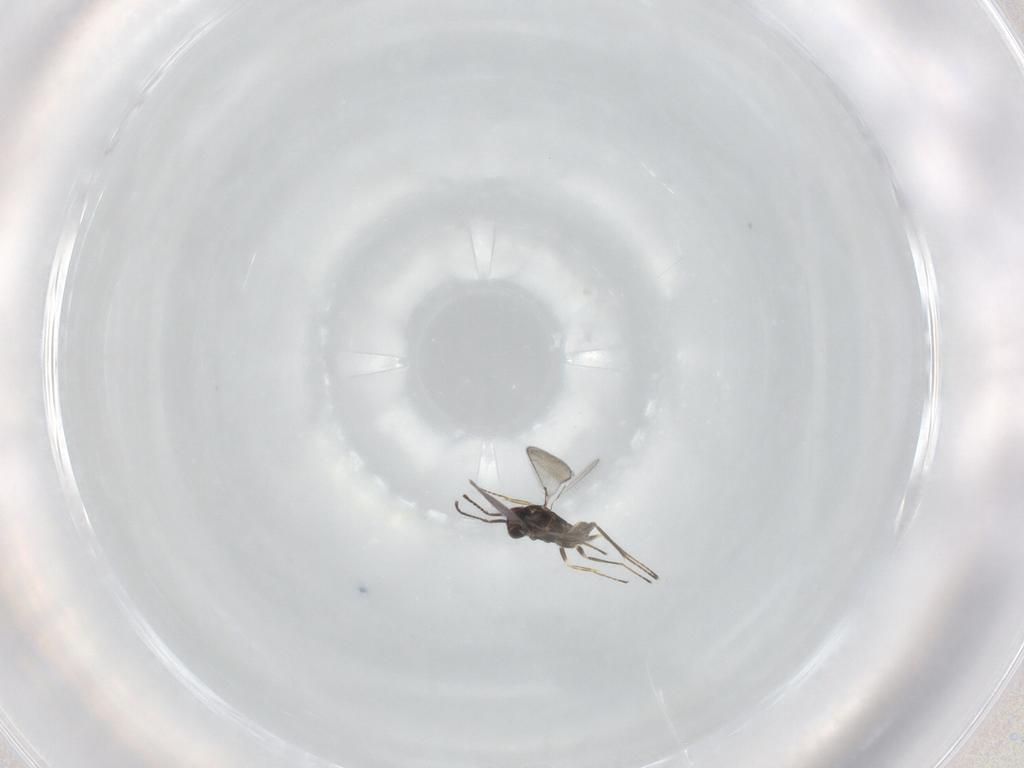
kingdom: Animalia
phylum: Arthropoda
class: Insecta
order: Hymenoptera
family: Mymaridae
